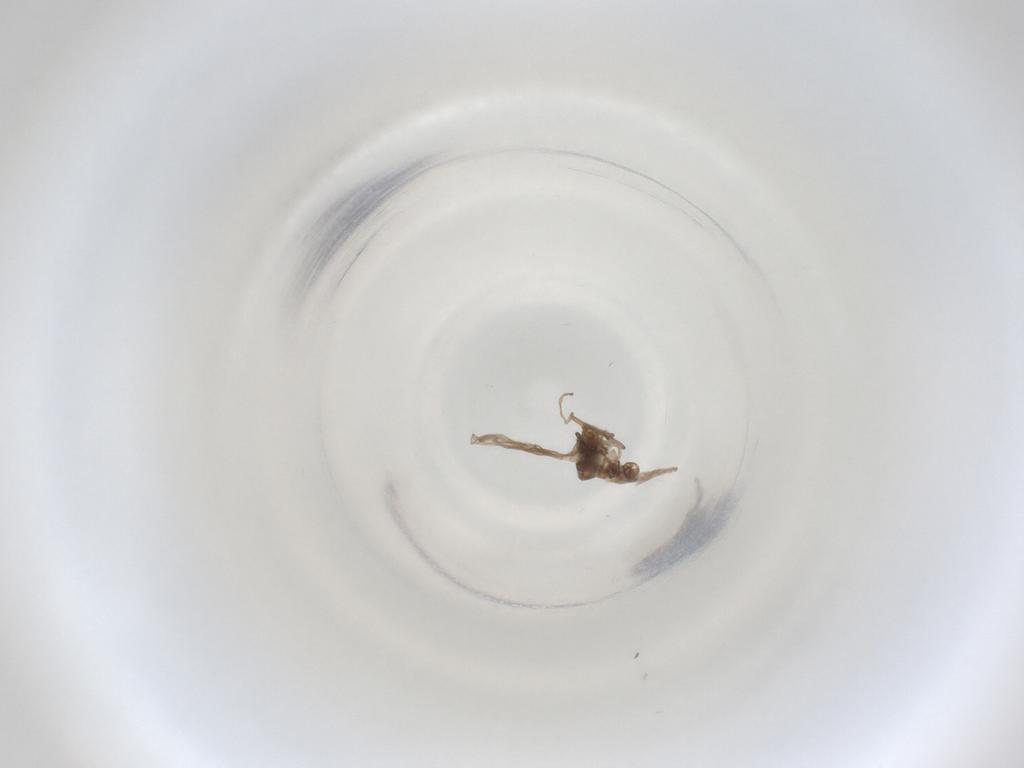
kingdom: Animalia
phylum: Arthropoda
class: Insecta
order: Diptera
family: Cecidomyiidae
